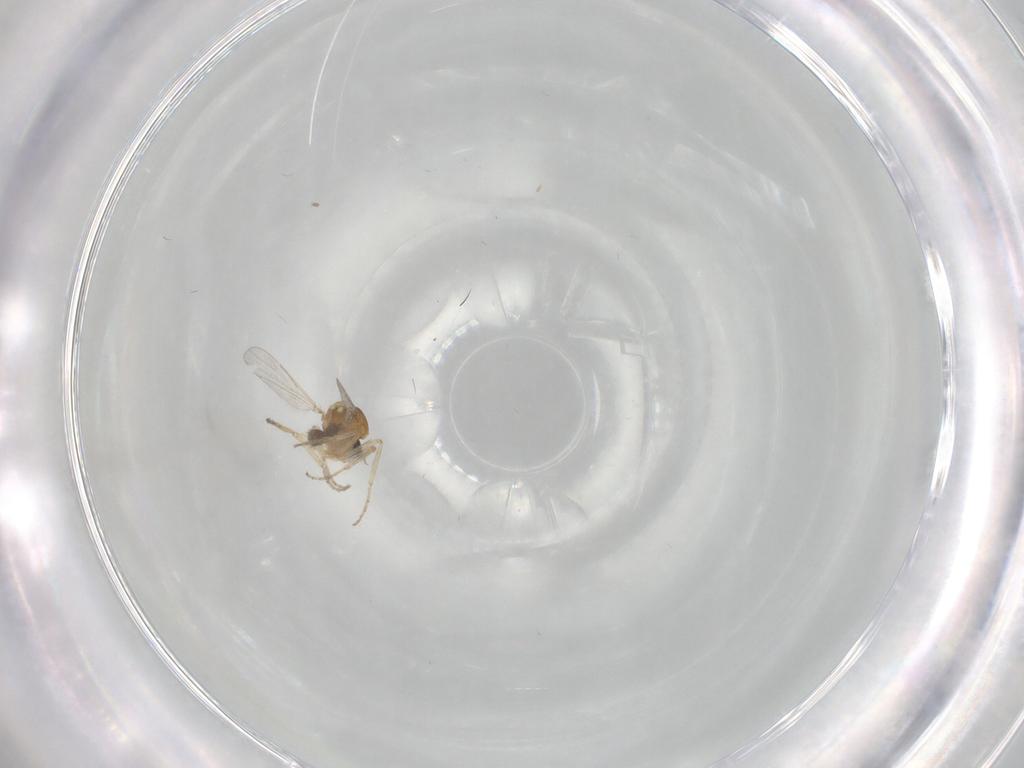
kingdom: Animalia
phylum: Arthropoda
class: Insecta
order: Diptera
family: Ceratopogonidae
